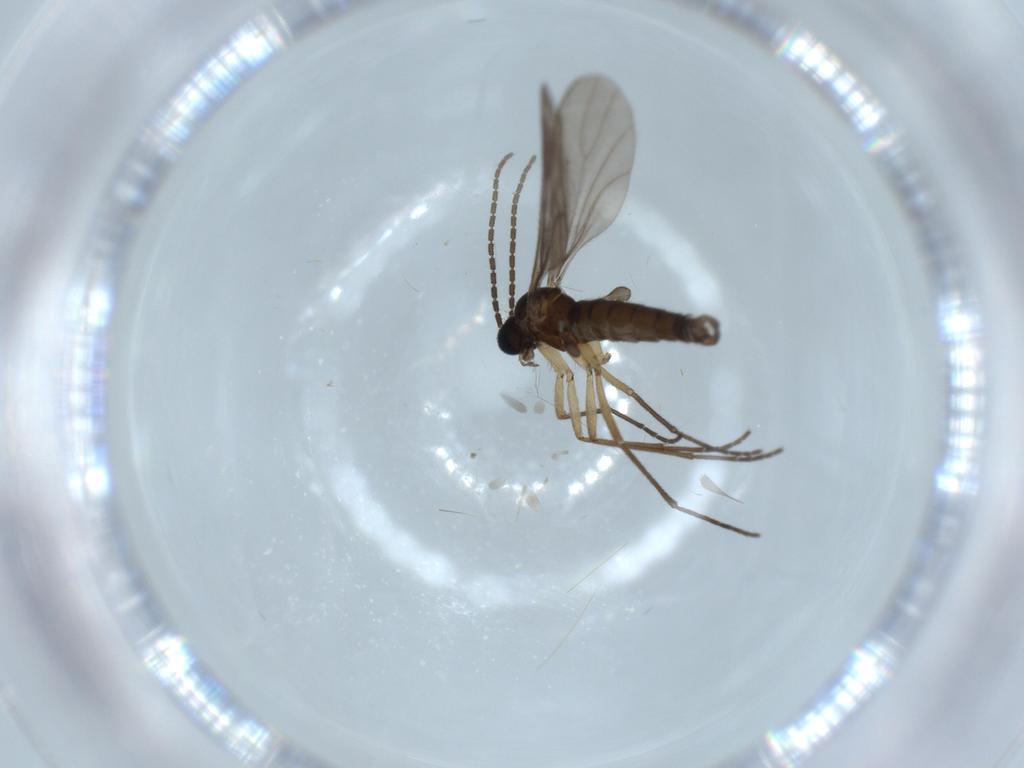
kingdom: Animalia
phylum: Arthropoda
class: Insecta
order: Diptera
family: Sciaridae
